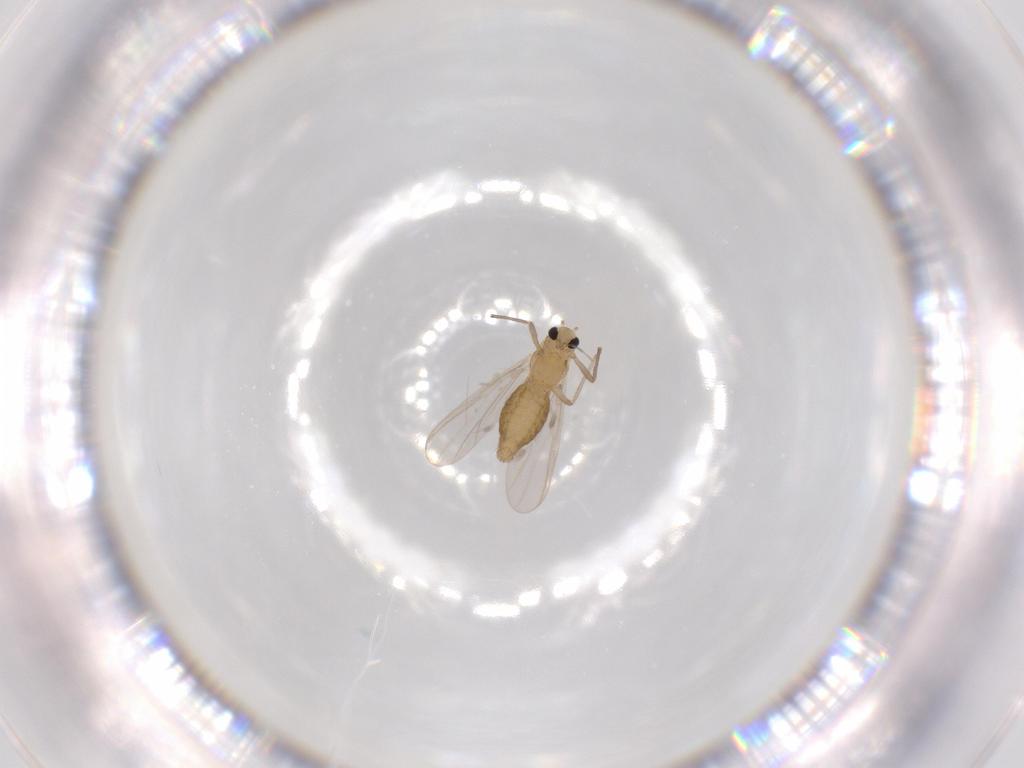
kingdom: Animalia
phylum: Arthropoda
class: Insecta
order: Diptera
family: Chironomidae
